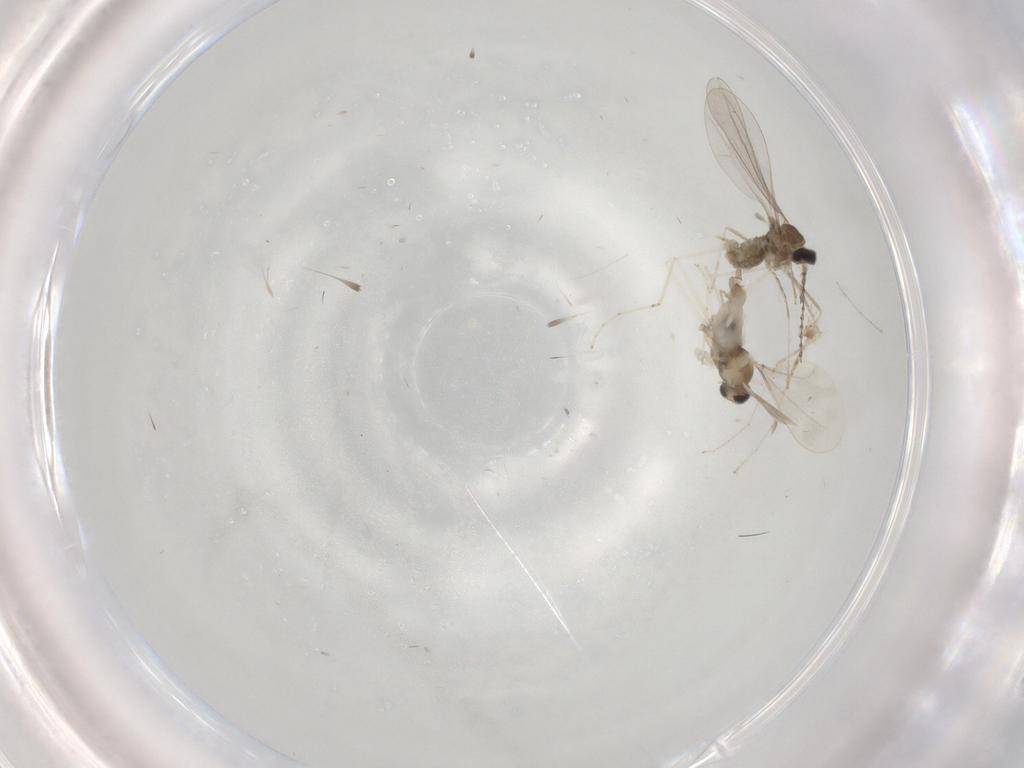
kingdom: Animalia
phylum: Arthropoda
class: Insecta
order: Diptera
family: Cecidomyiidae
